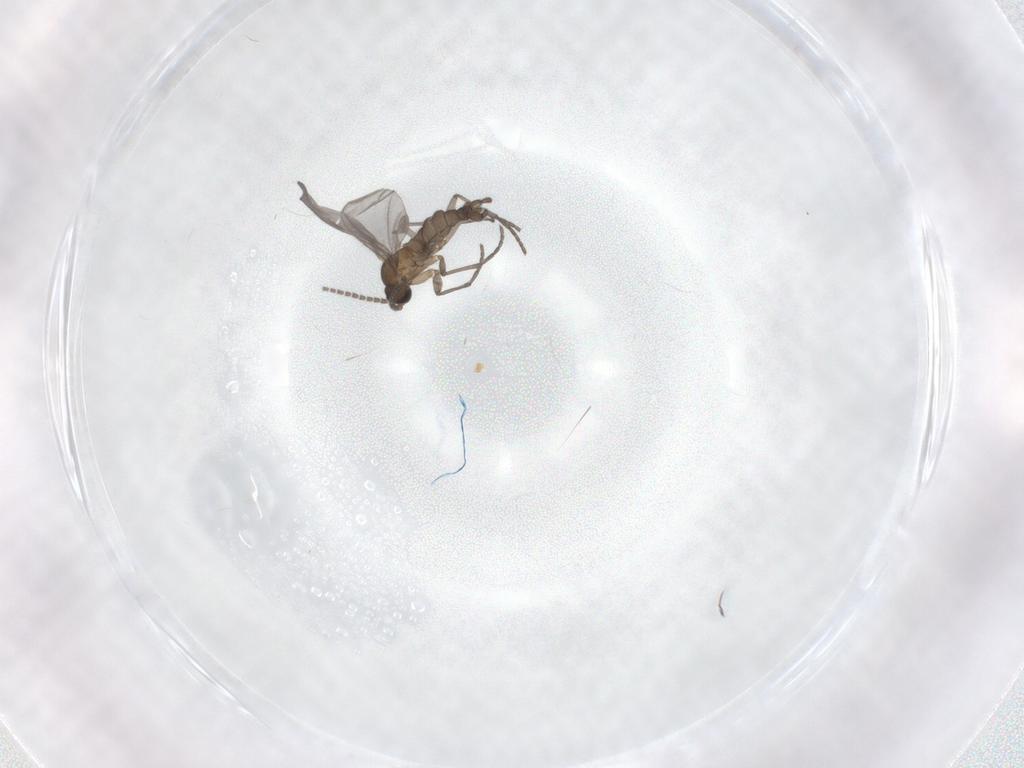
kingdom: Animalia
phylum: Arthropoda
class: Insecta
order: Diptera
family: Sciaridae
